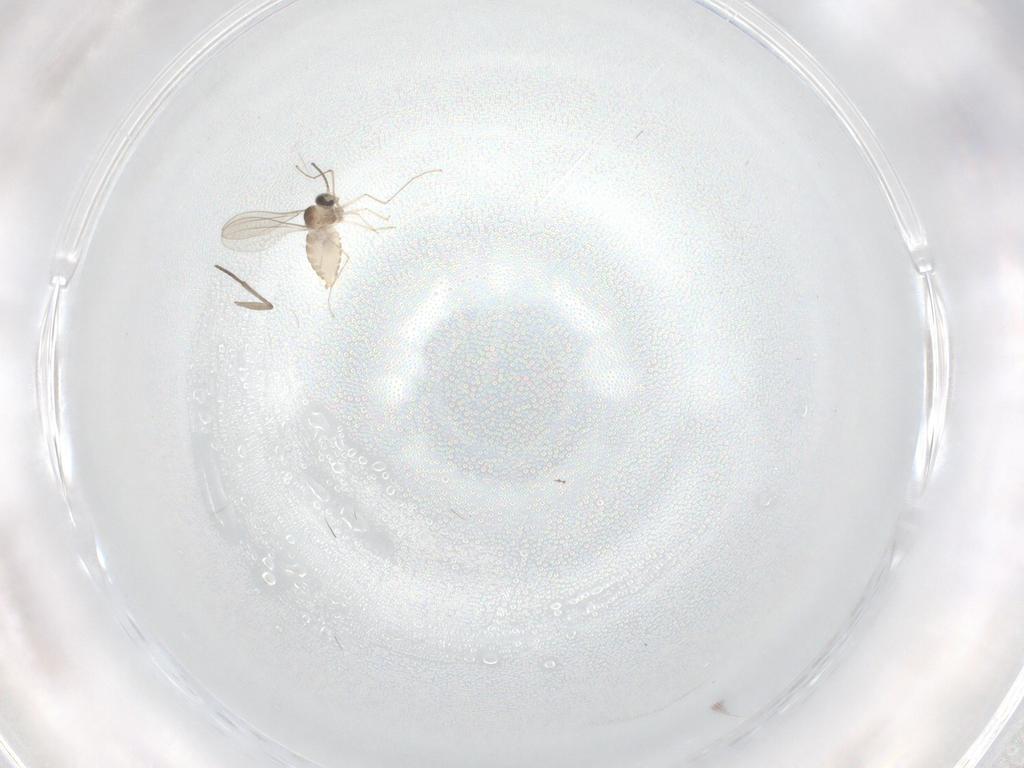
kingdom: Animalia
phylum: Arthropoda
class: Insecta
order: Diptera
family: Cecidomyiidae
